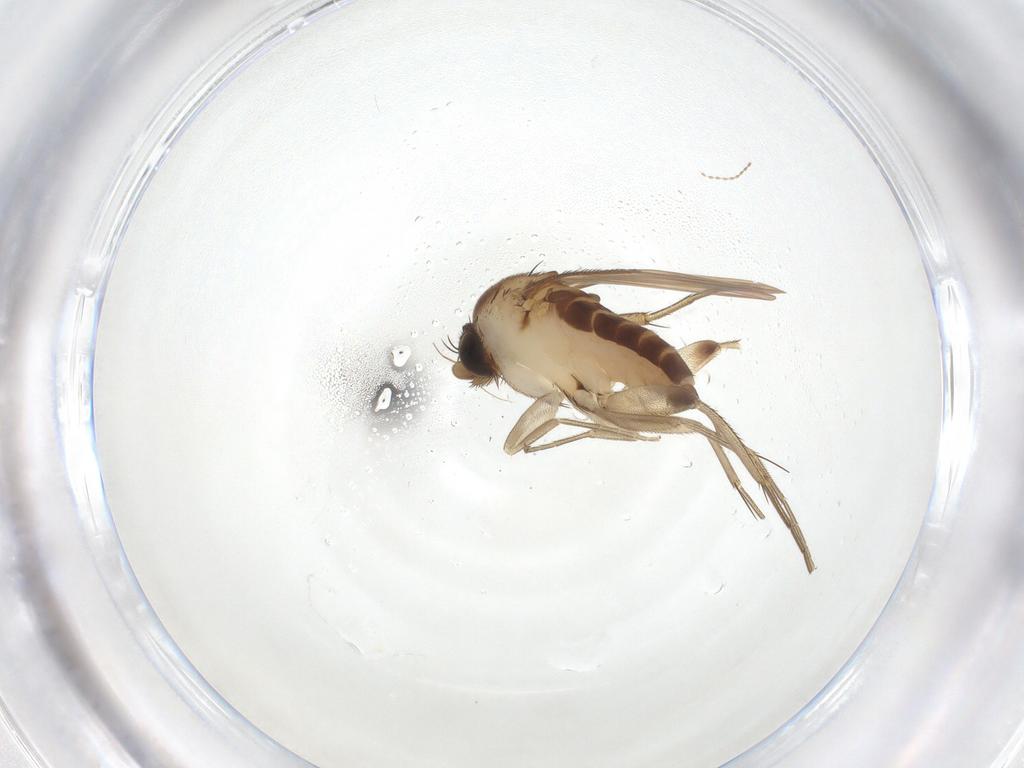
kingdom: Animalia
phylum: Arthropoda
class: Insecta
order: Diptera
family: Phoridae
